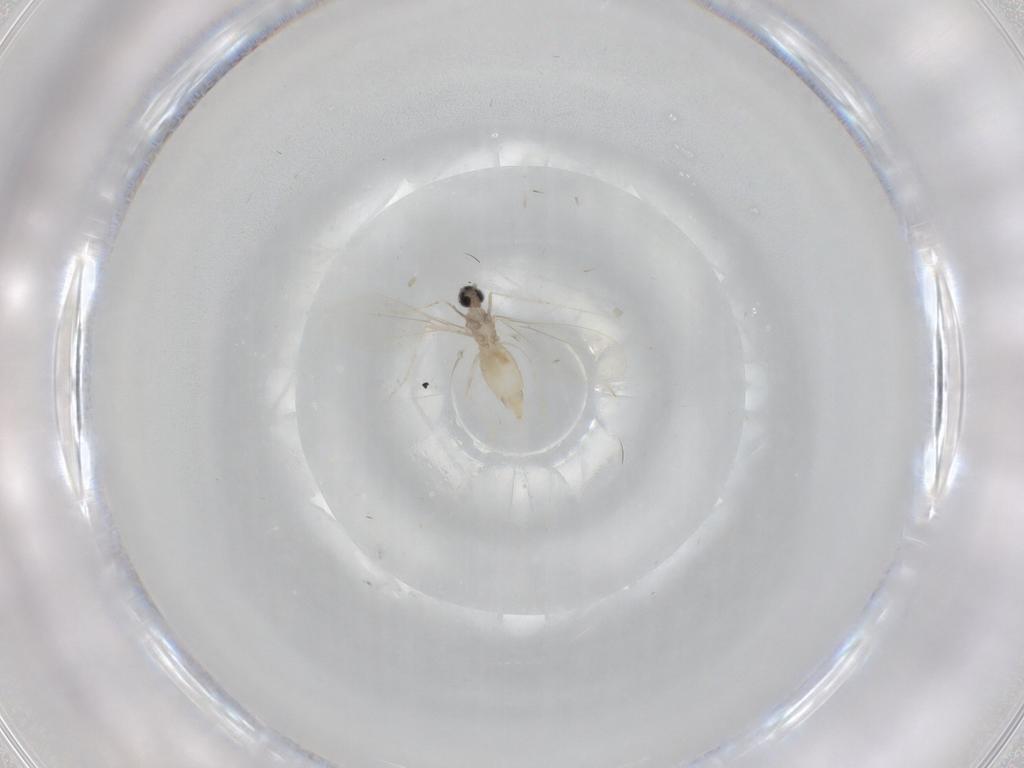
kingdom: Animalia
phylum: Arthropoda
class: Insecta
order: Diptera
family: Cecidomyiidae
